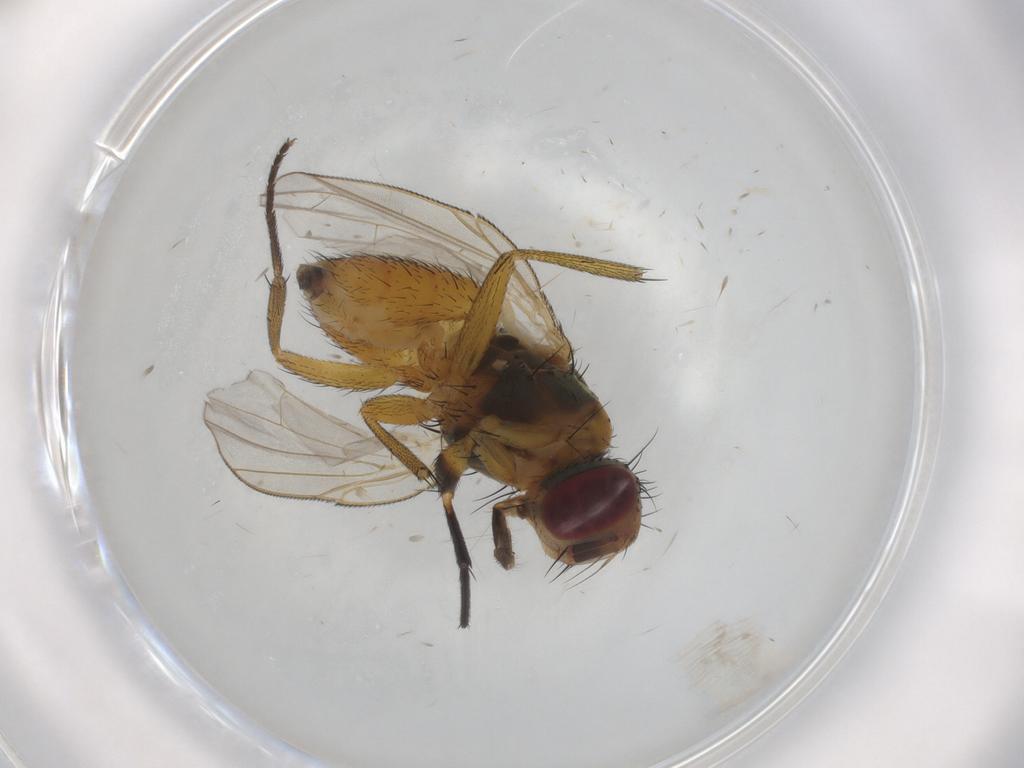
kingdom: Animalia
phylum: Arthropoda
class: Insecta
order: Diptera
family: Muscidae
